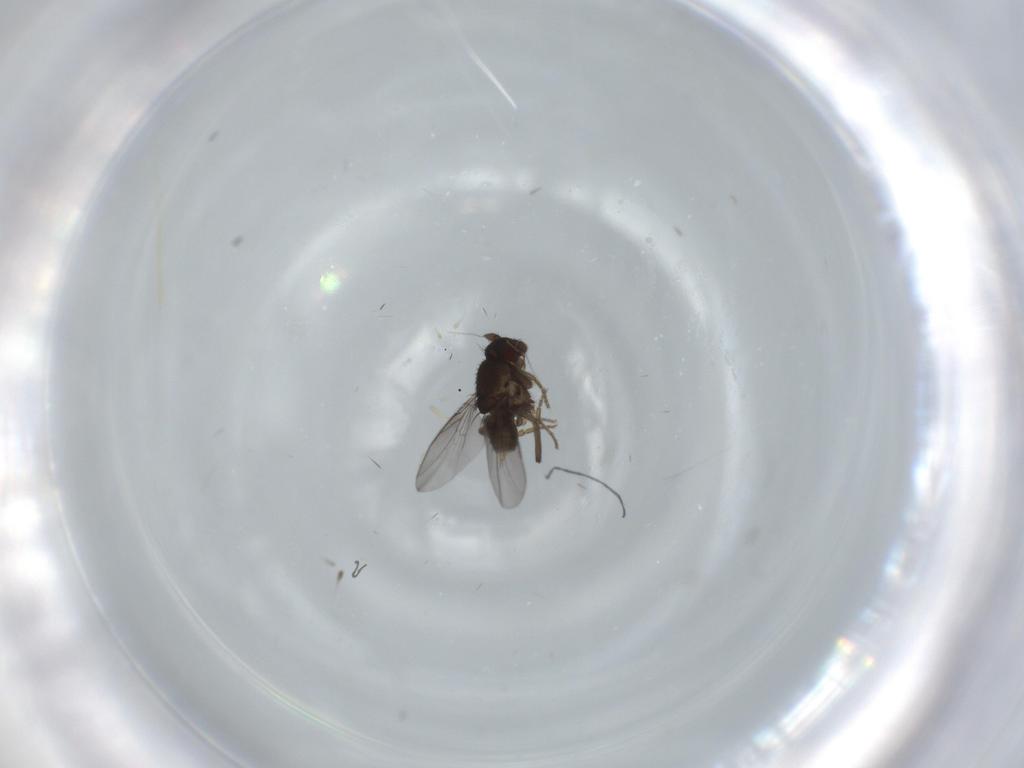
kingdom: Animalia
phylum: Arthropoda
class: Insecta
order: Diptera
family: Sphaeroceridae
